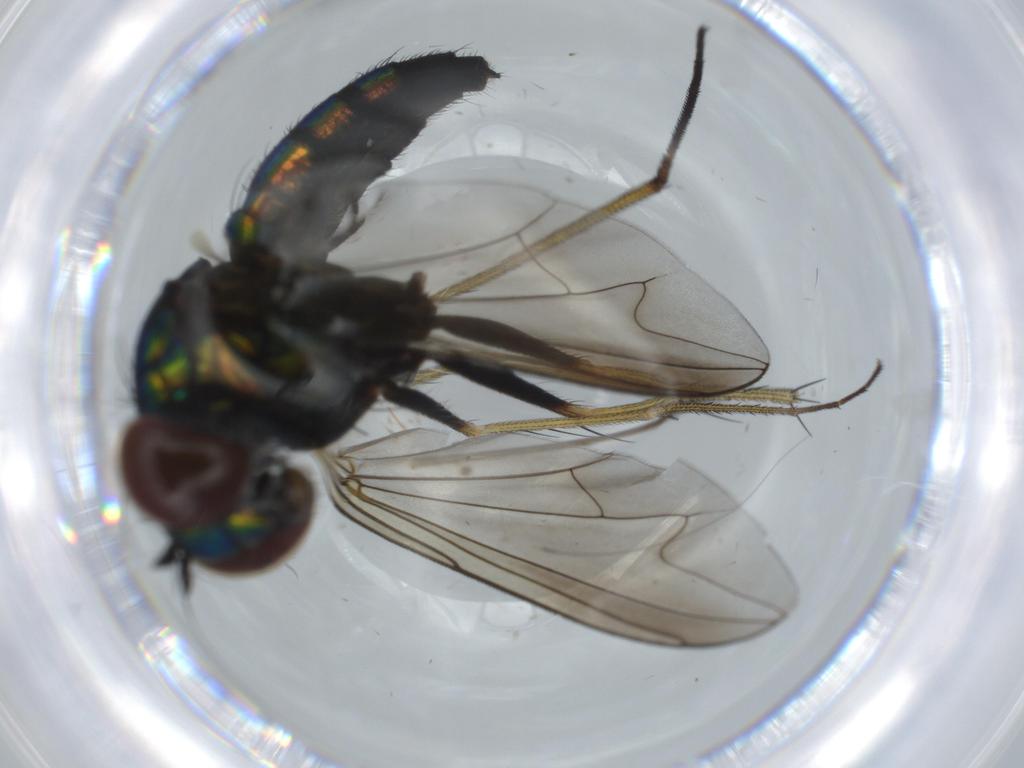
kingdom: Animalia
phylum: Arthropoda
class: Insecta
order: Diptera
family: Dolichopodidae
